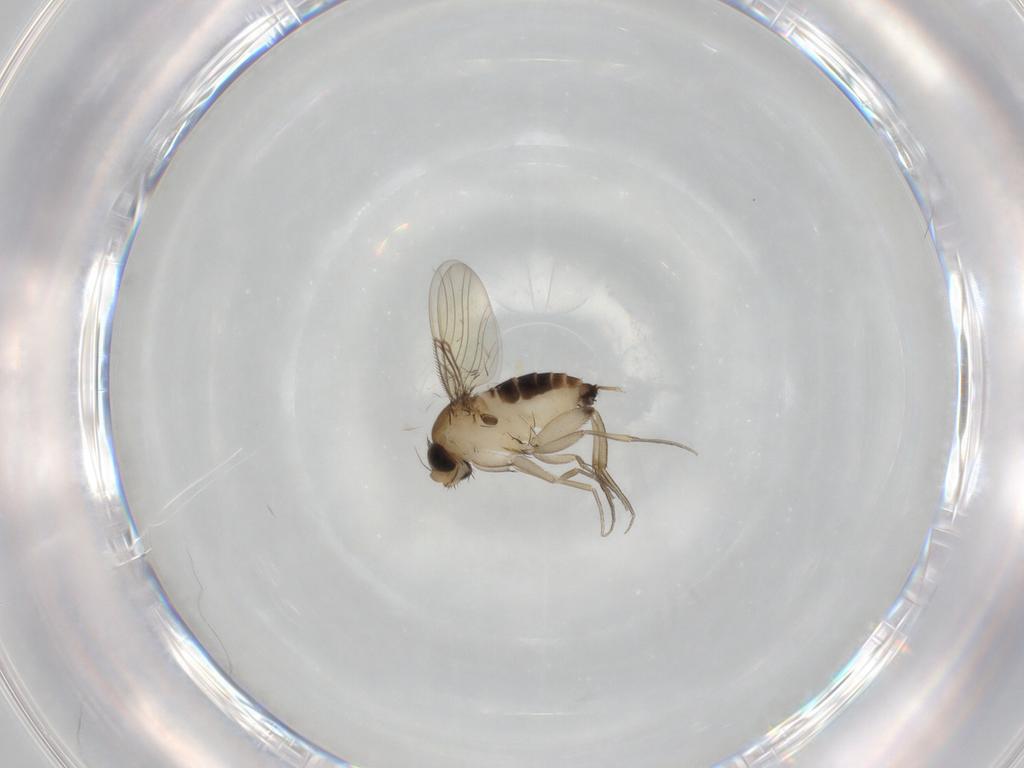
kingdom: Animalia
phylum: Arthropoda
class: Insecta
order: Diptera
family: Phoridae
